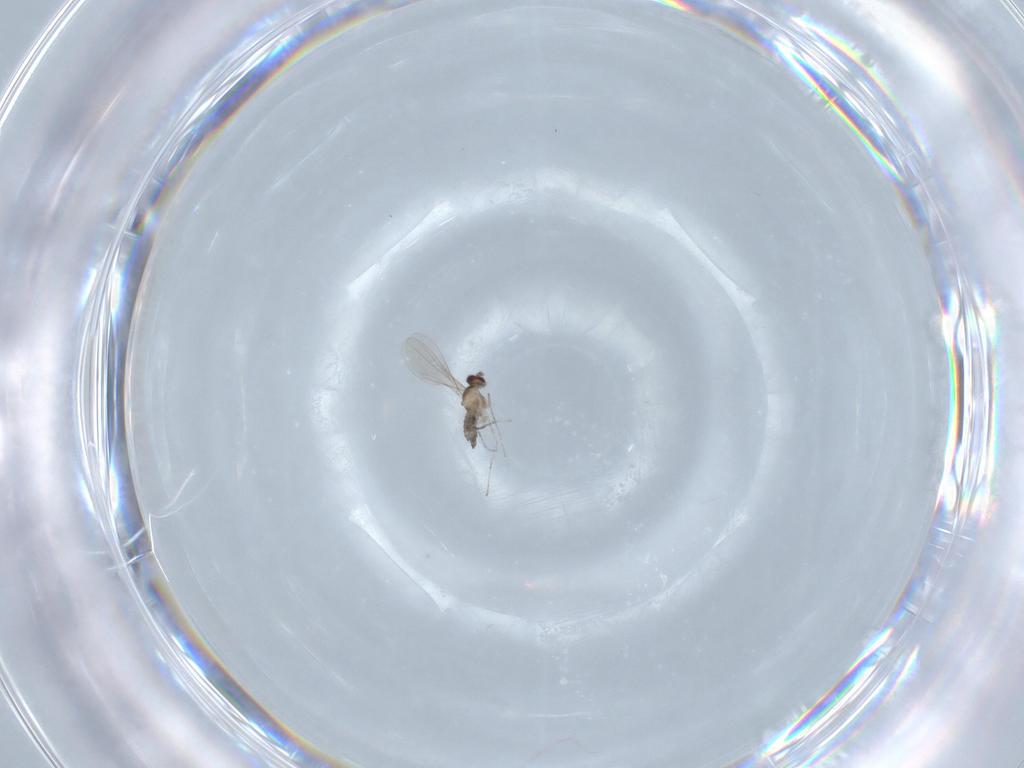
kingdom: Animalia
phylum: Arthropoda
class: Insecta
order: Diptera
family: Cecidomyiidae
